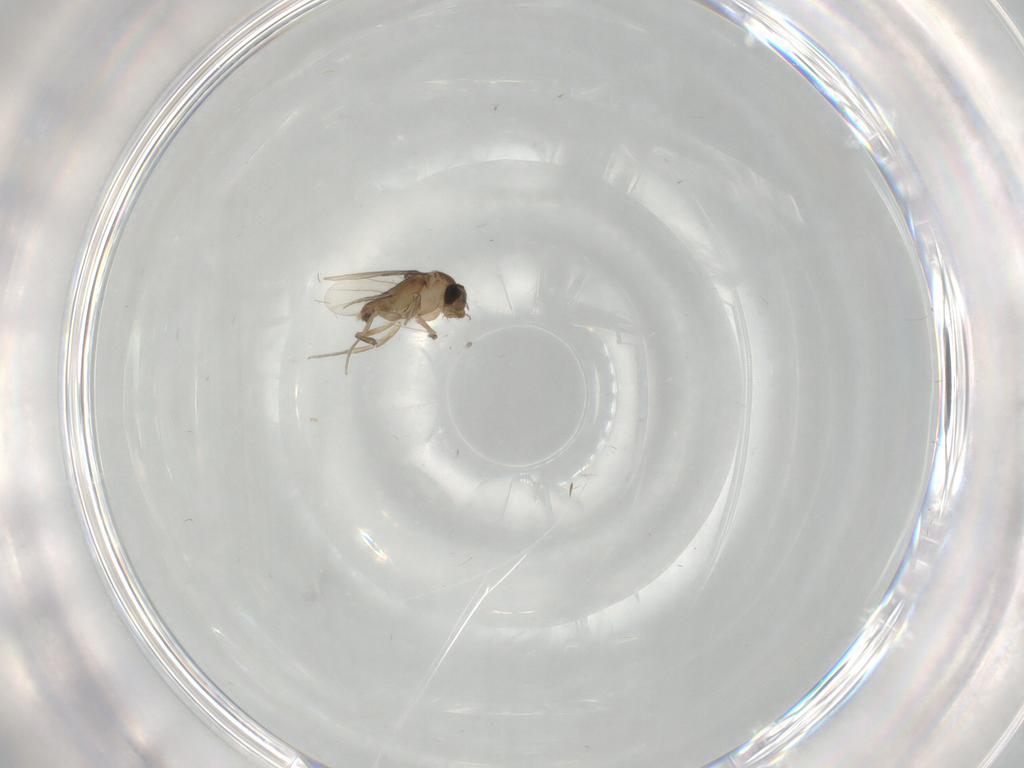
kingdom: Animalia
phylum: Arthropoda
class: Insecta
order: Diptera
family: Phoridae
